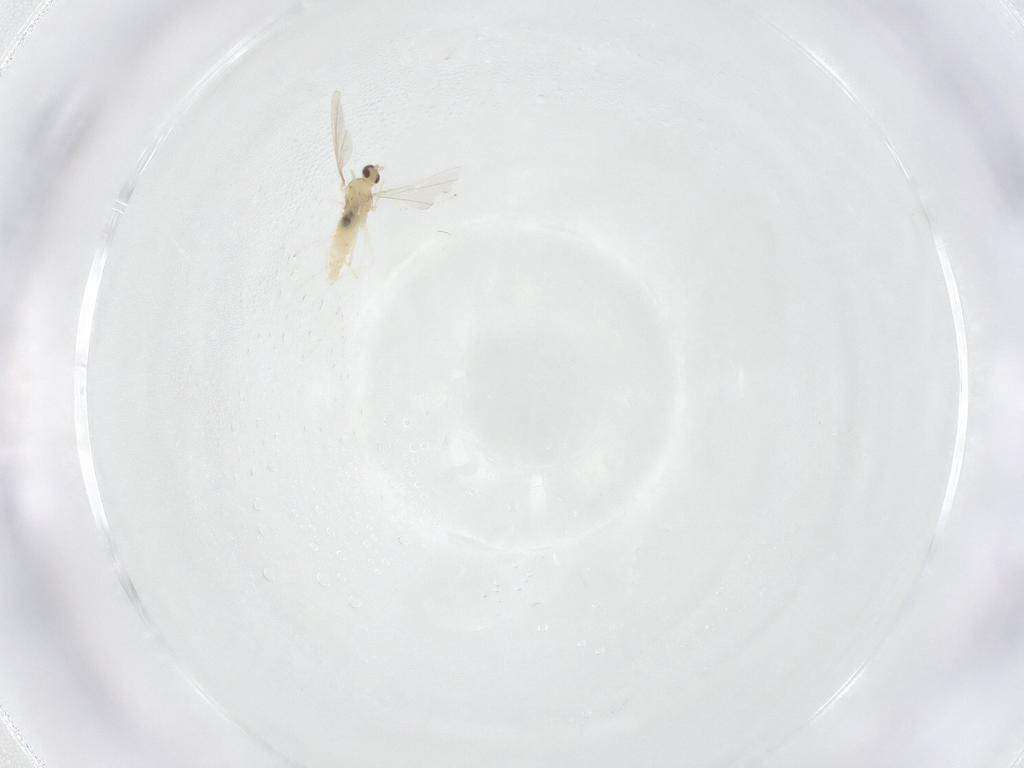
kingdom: Animalia
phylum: Arthropoda
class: Insecta
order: Diptera
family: Cecidomyiidae
